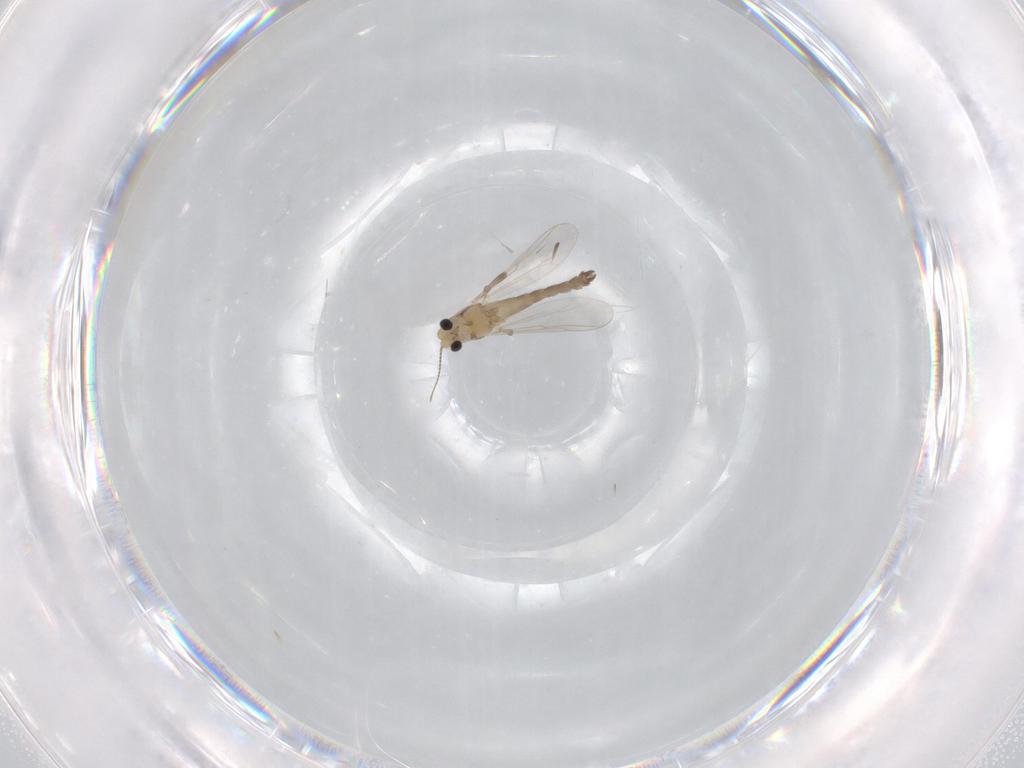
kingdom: Animalia
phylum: Arthropoda
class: Insecta
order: Diptera
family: Chironomidae
